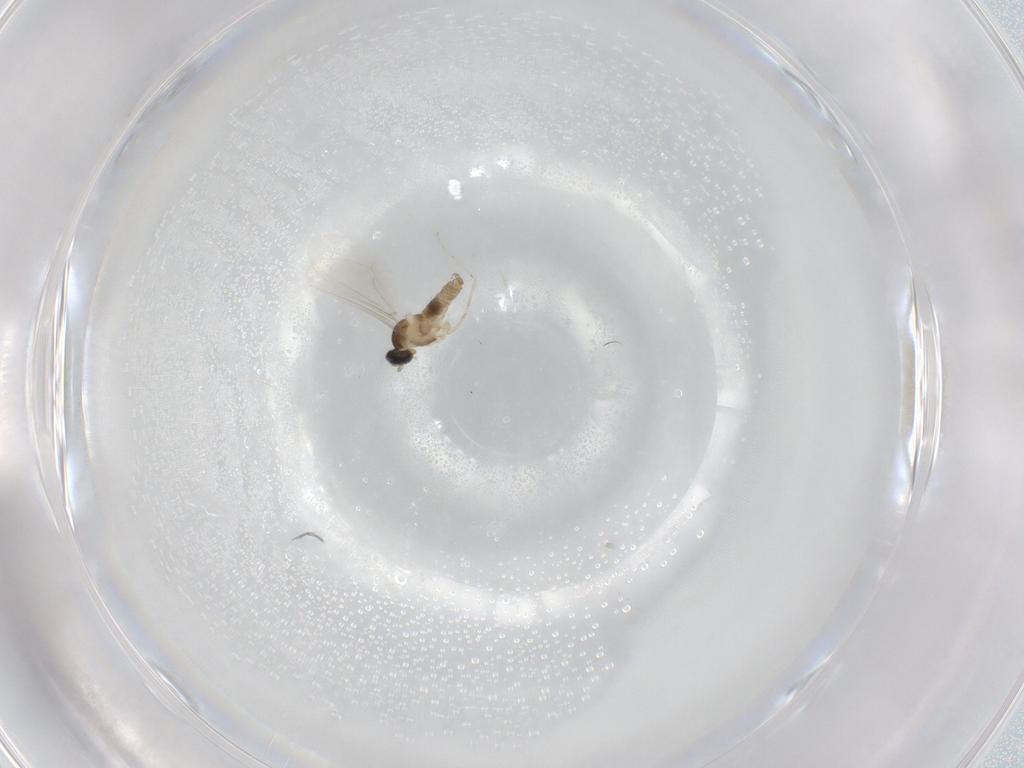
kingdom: Animalia
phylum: Arthropoda
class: Insecta
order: Diptera
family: Cecidomyiidae
